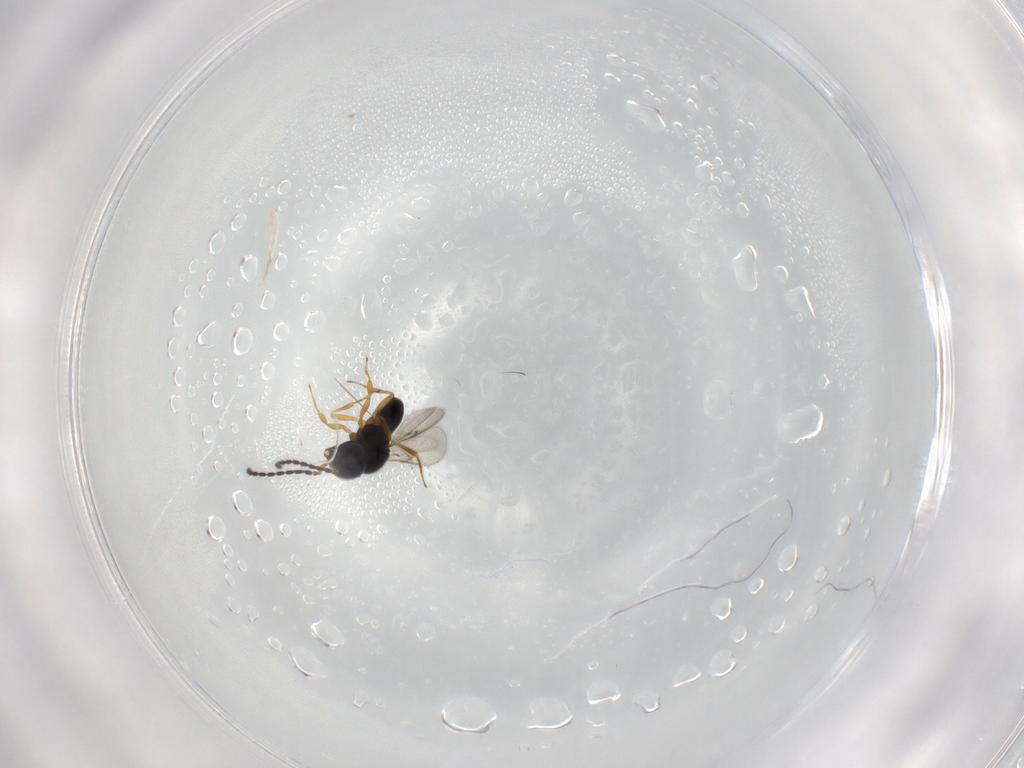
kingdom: Animalia
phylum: Arthropoda
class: Insecta
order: Hymenoptera
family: Scelionidae
